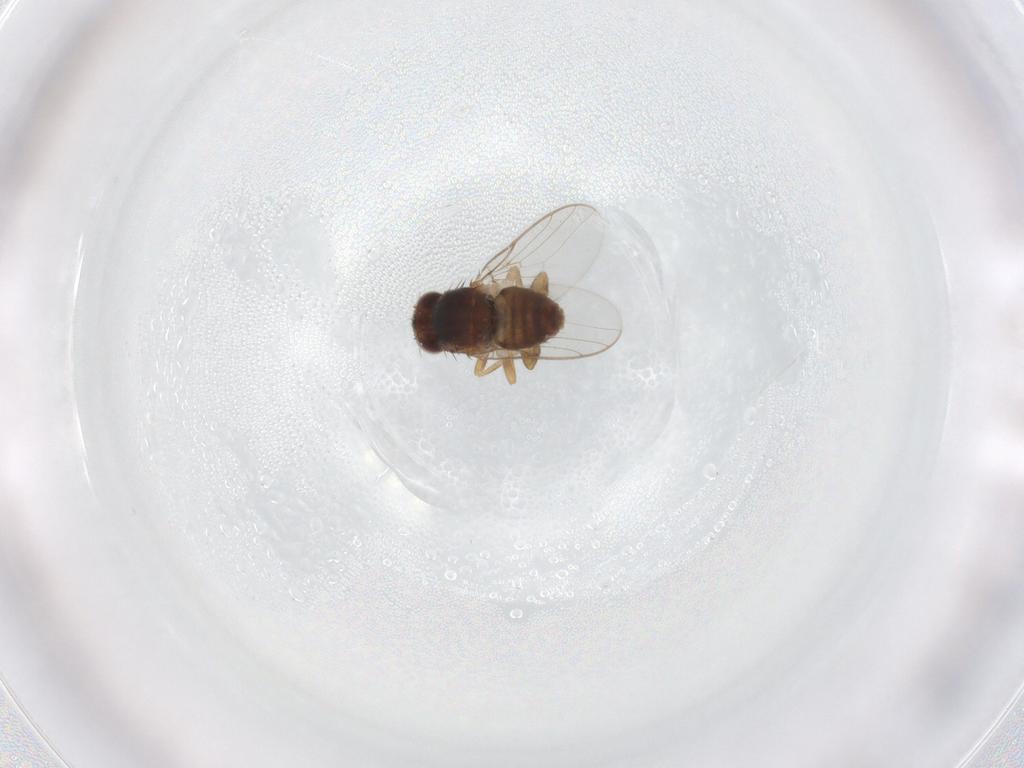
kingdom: Animalia
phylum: Arthropoda
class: Insecta
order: Diptera
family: Chloropidae
